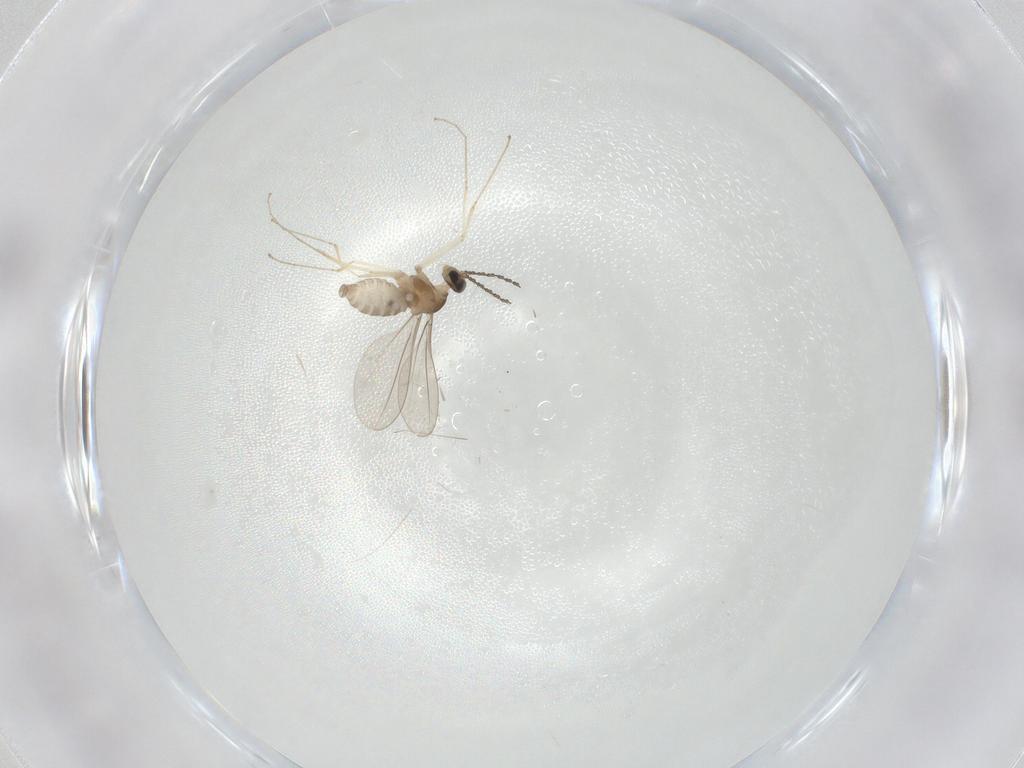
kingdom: Animalia
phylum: Arthropoda
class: Insecta
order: Diptera
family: Cecidomyiidae
